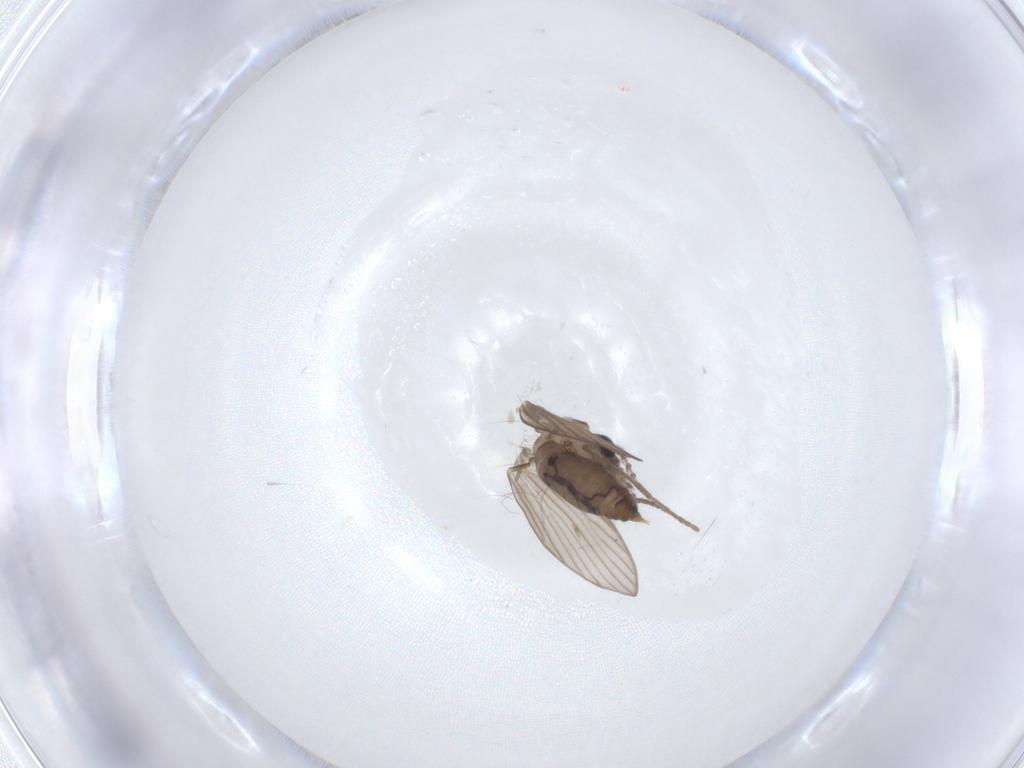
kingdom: Animalia
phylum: Arthropoda
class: Insecta
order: Diptera
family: Psychodidae
